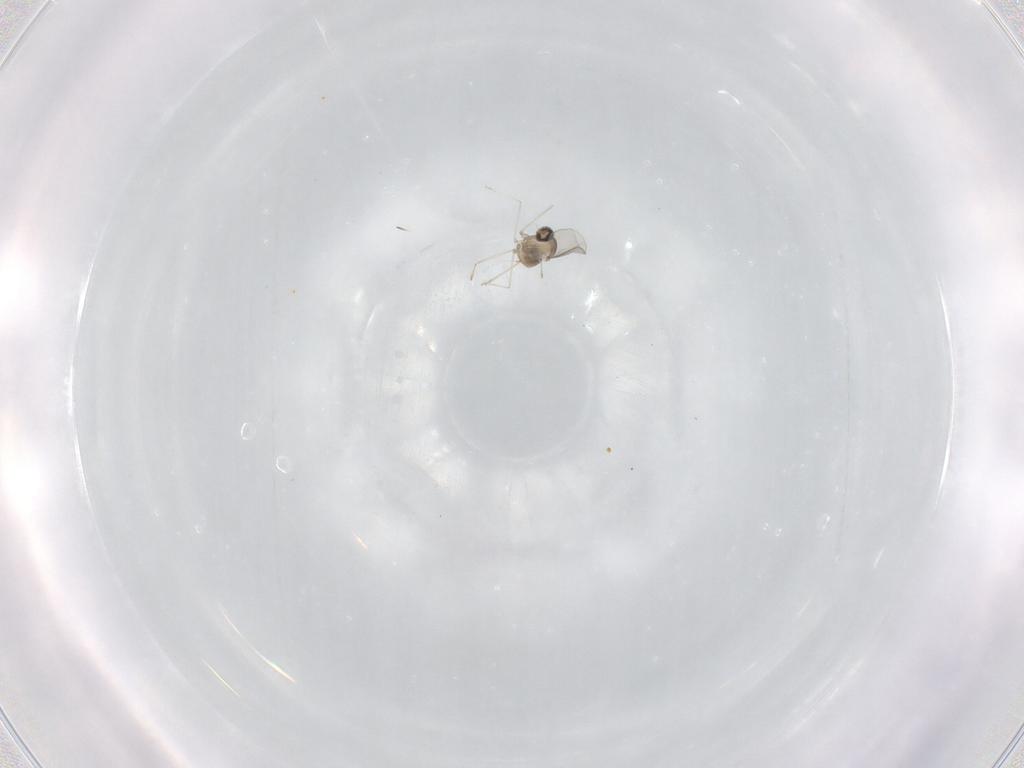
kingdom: Animalia
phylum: Arthropoda
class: Insecta
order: Diptera
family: Cecidomyiidae
